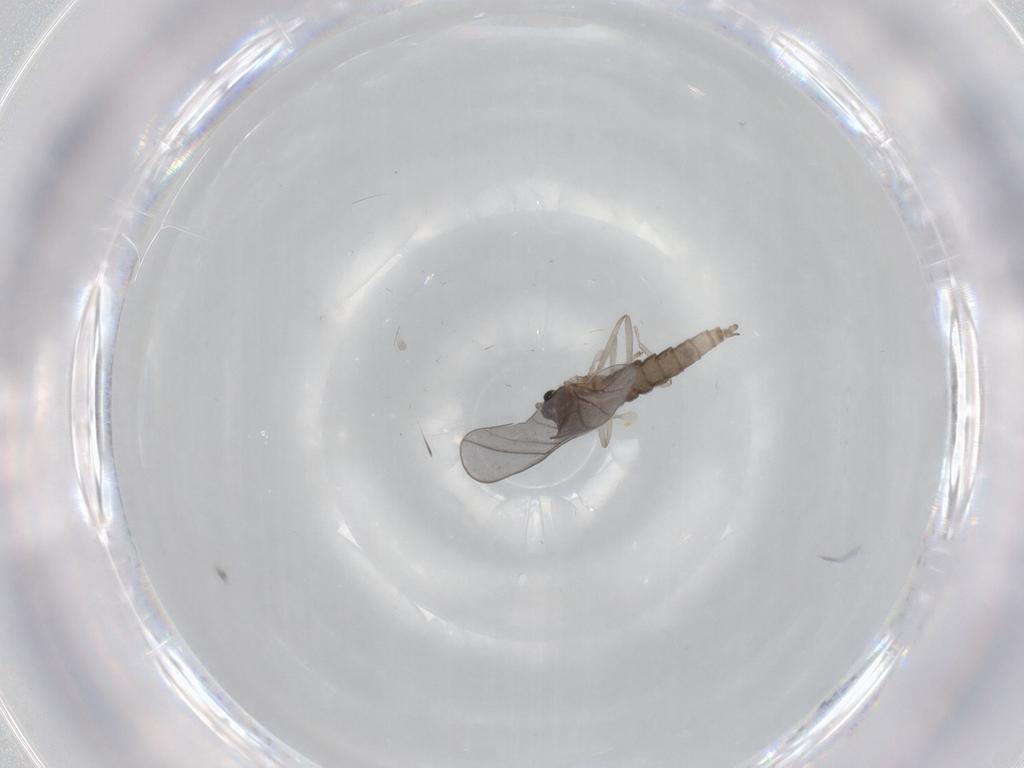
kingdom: Animalia
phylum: Arthropoda
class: Insecta
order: Diptera
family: Cecidomyiidae
